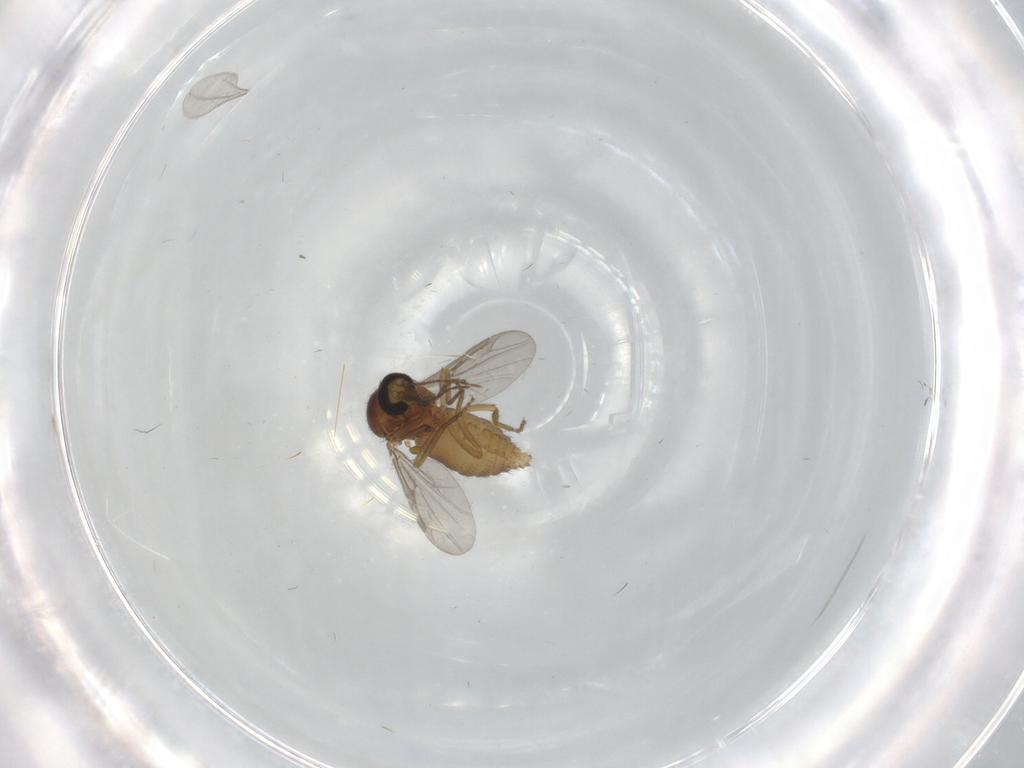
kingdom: Animalia
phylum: Arthropoda
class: Insecta
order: Diptera
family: Ceratopogonidae
